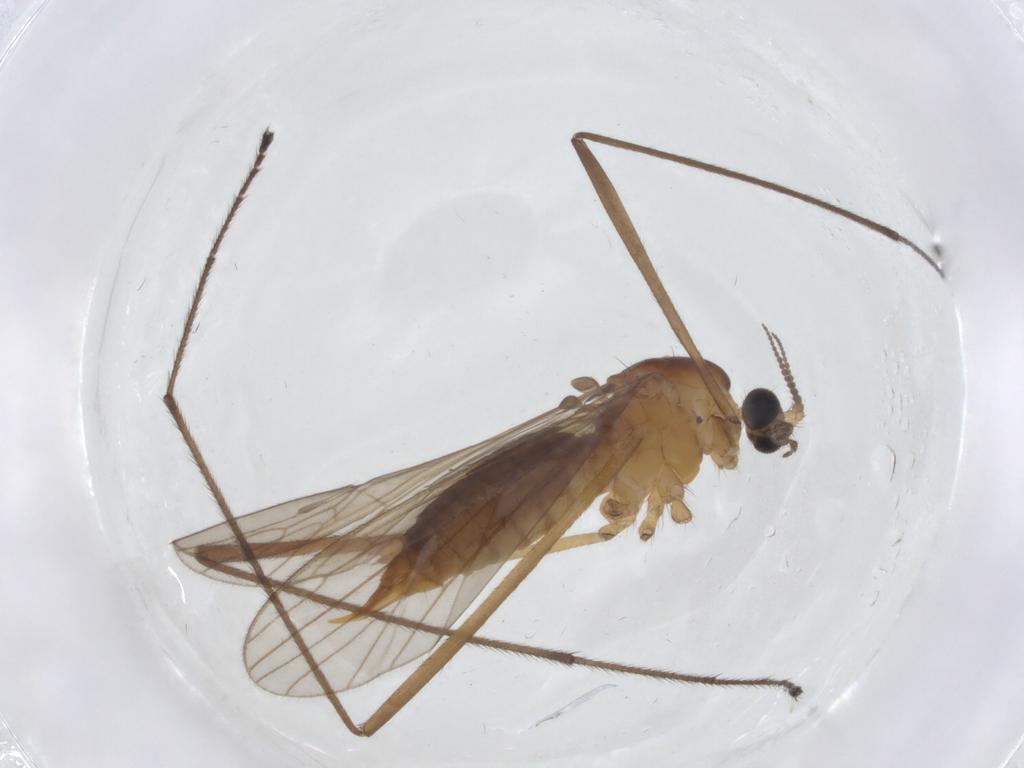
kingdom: Animalia
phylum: Arthropoda
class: Insecta
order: Diptera
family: Limoniidae
